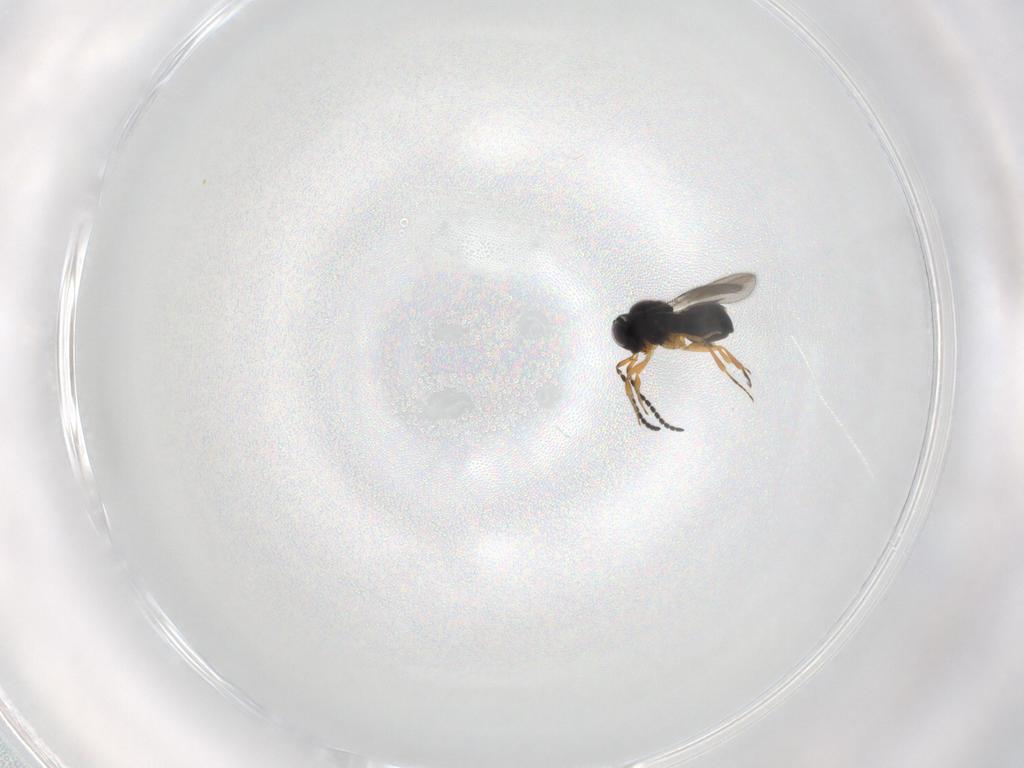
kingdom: Animalia
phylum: Arthropoda
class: Insecta
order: Hymenoptera
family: Scelionidae
